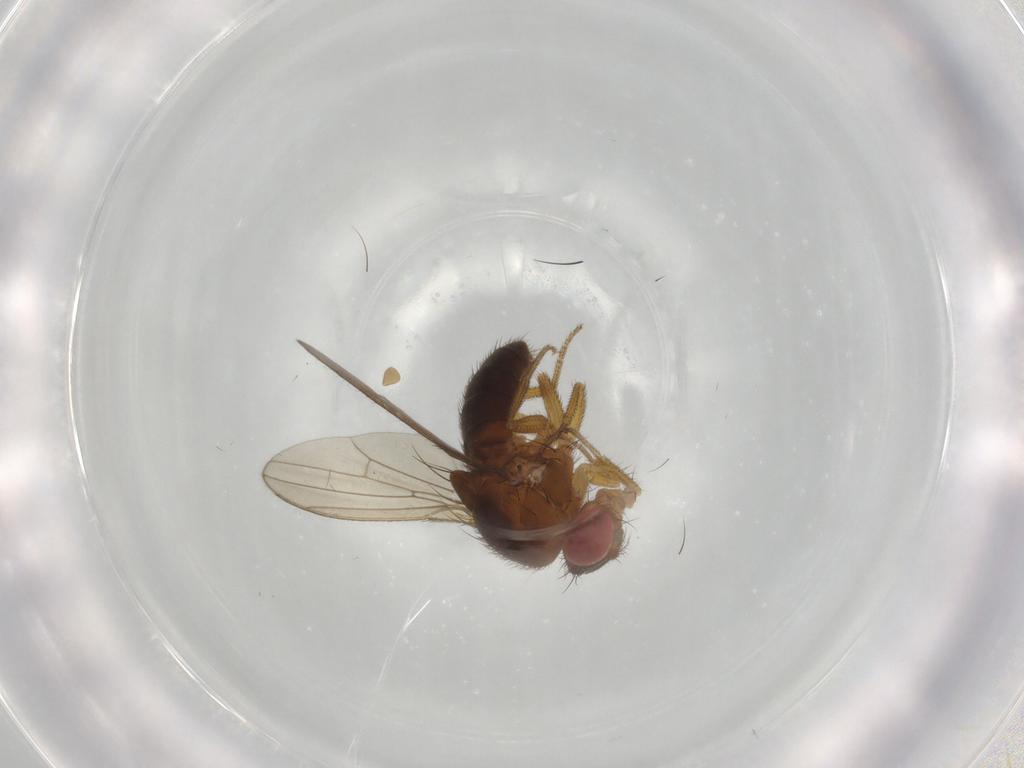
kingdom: Animalia
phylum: Arthropoda
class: Insecta
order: Diptera
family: Drosophilidae
